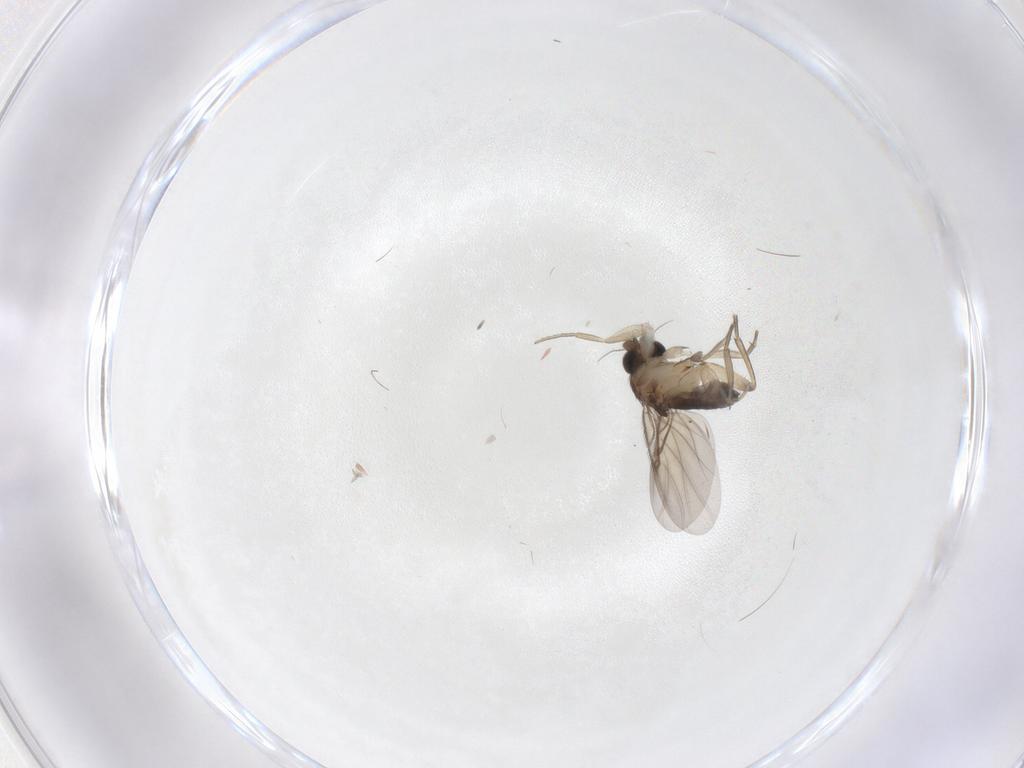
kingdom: Animalia
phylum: Arthropoda
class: Insecta
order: Diptera
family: Phoridae
